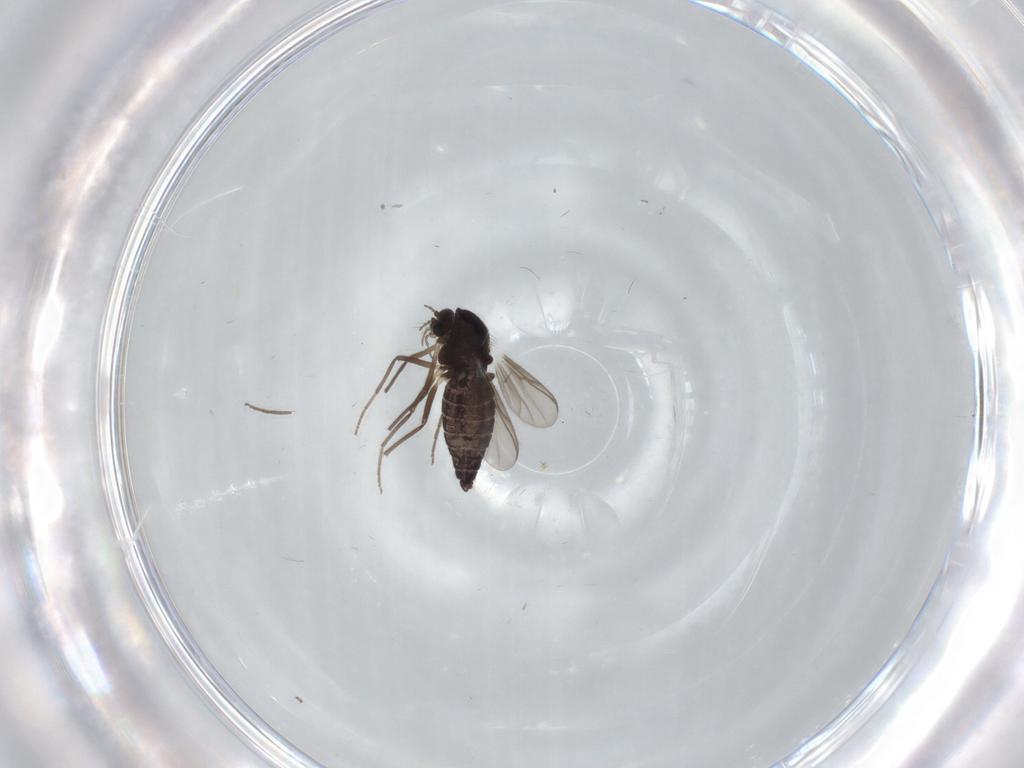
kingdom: Animalia
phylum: Arthropoda
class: Insecta
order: Diptera
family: Chironomidae
